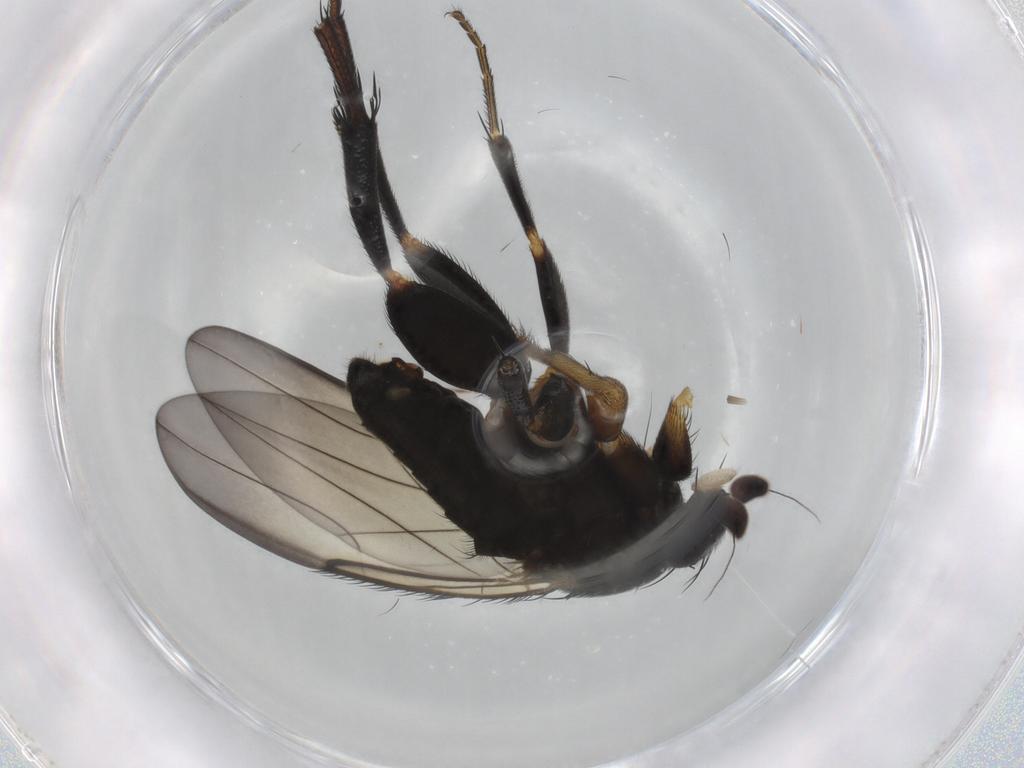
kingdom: Animalia
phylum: Arthropoda
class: Insecta
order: Diptera
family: Phoridae
